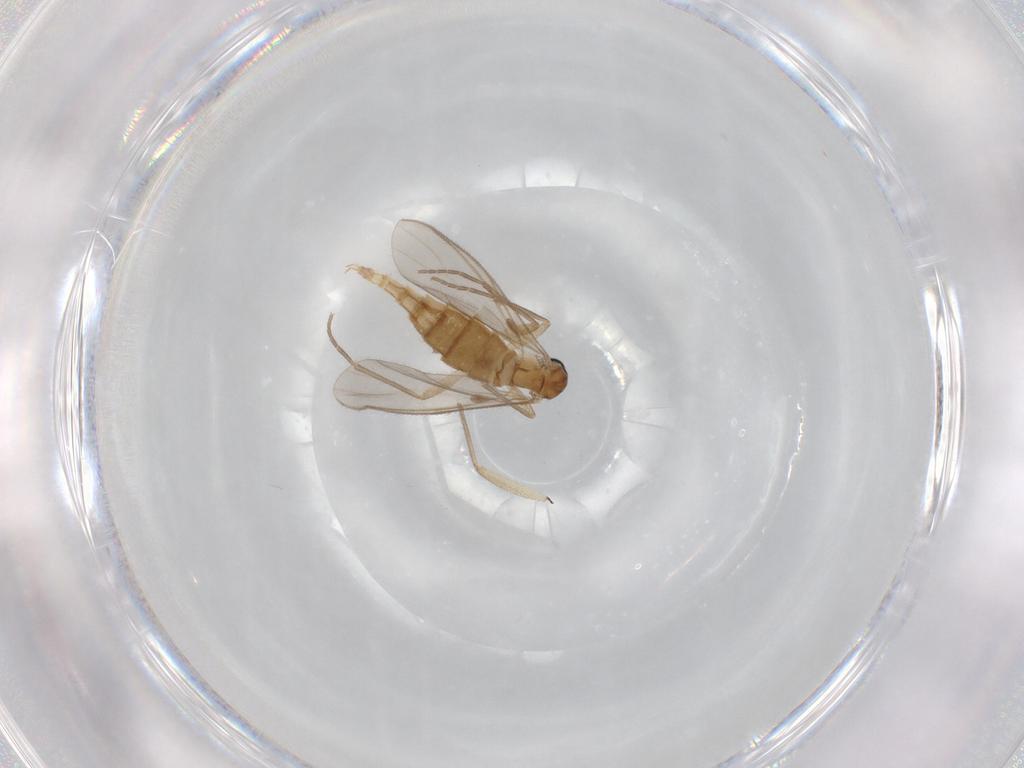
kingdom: Animalia
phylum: Arthropoda
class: Insecta
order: Diptera
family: Sciaridae
